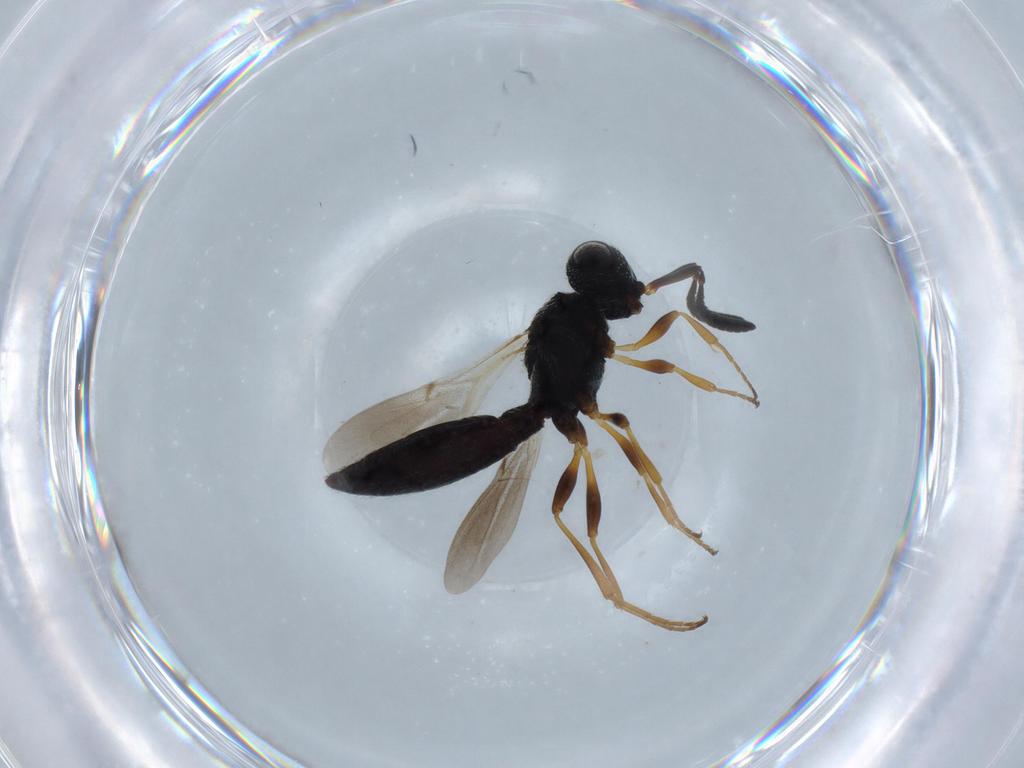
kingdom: Animalia
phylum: Arthropoda
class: Insecta
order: Hymenoptera
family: Scelionidae
